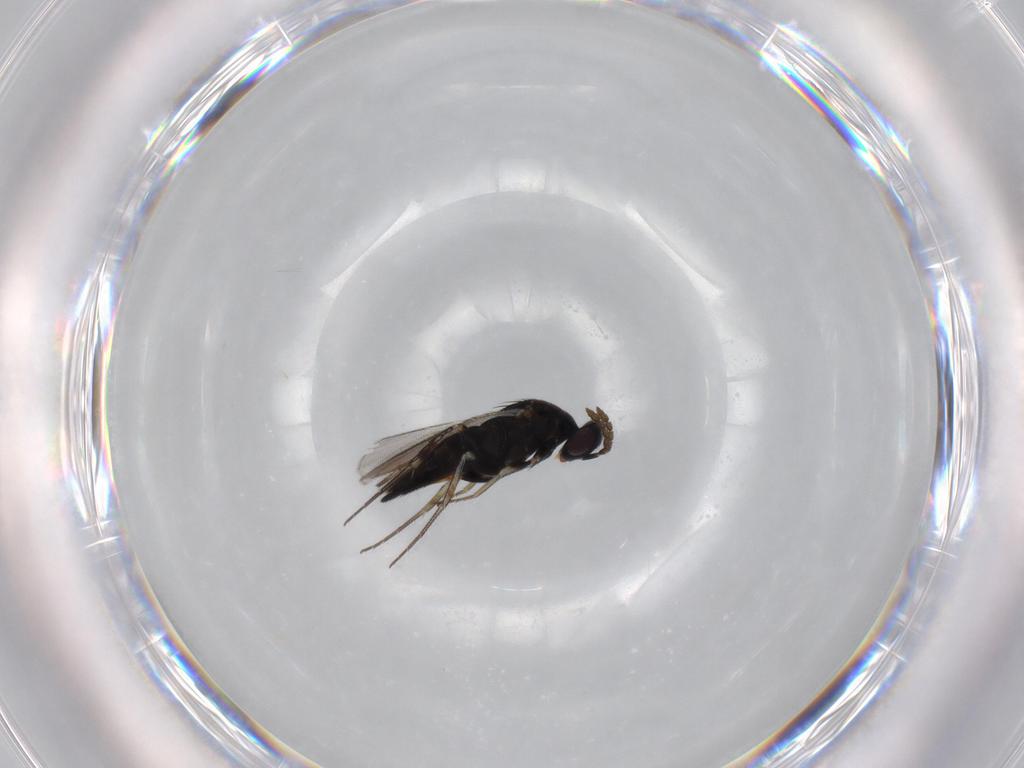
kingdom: Animalia
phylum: Arthropoda
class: Insecta
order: Hymenoptera
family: Eulophidae
